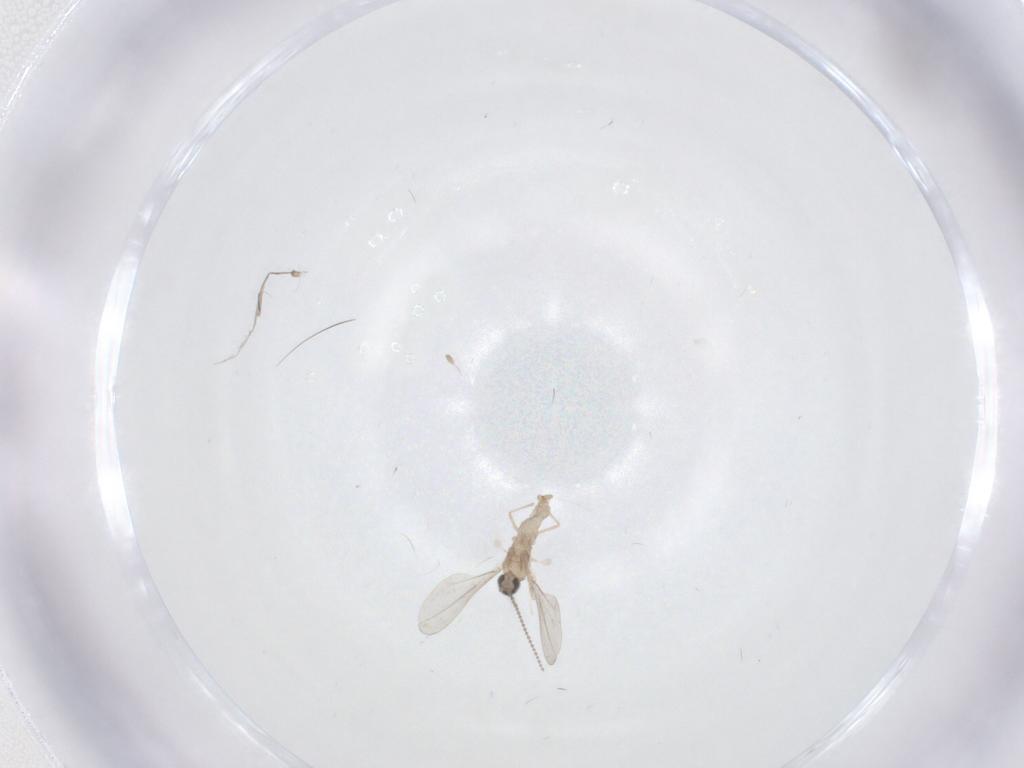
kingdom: Animalia
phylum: Arthropoda
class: Insecta
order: Diptera
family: Cecidomyiidae
